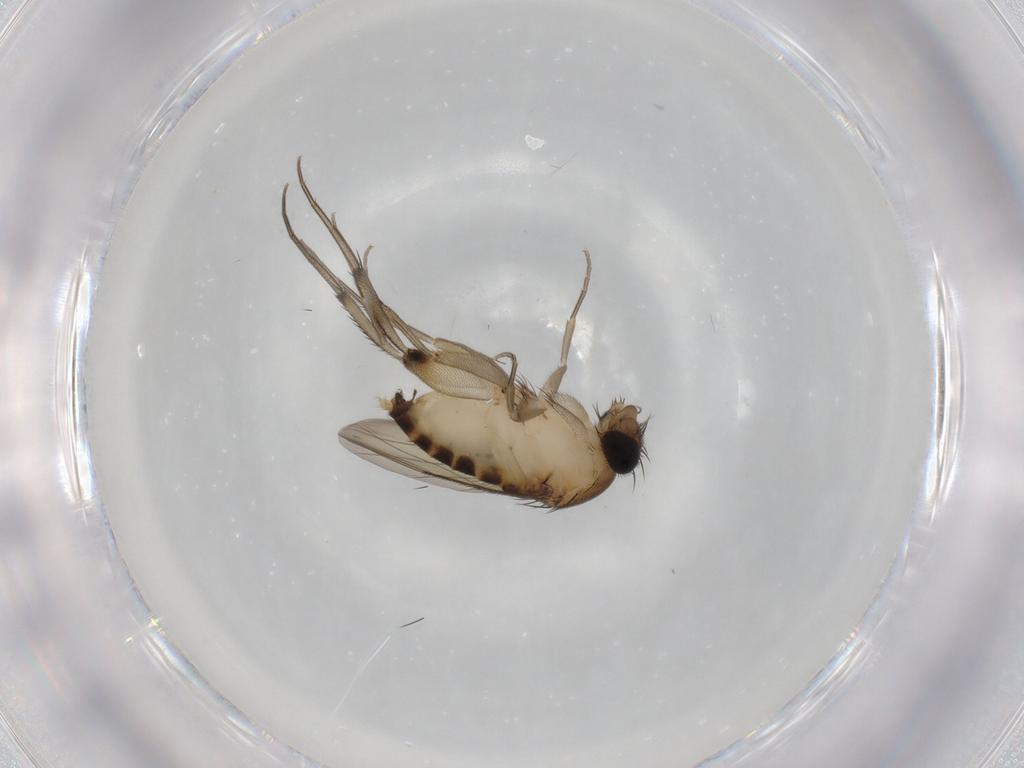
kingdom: Animalia
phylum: Arthropoda
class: Insecta
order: Diptera
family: Phoridae
